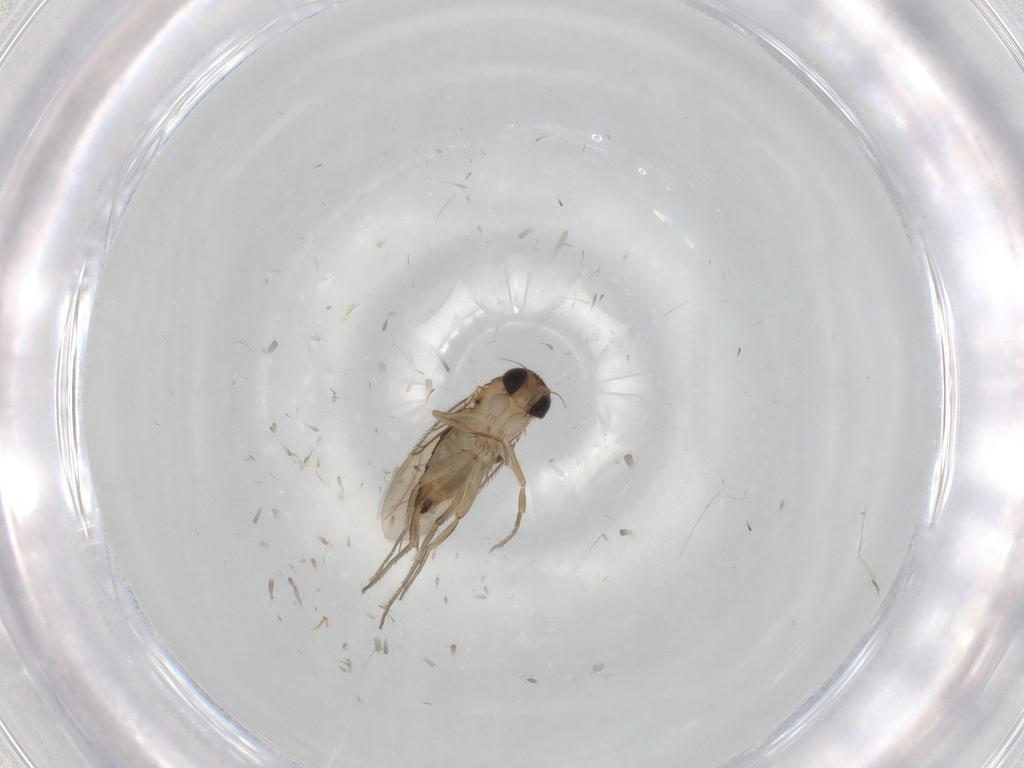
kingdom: Animalia
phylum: Arthropoda
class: Insecta
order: Diptera
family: Phoridae
